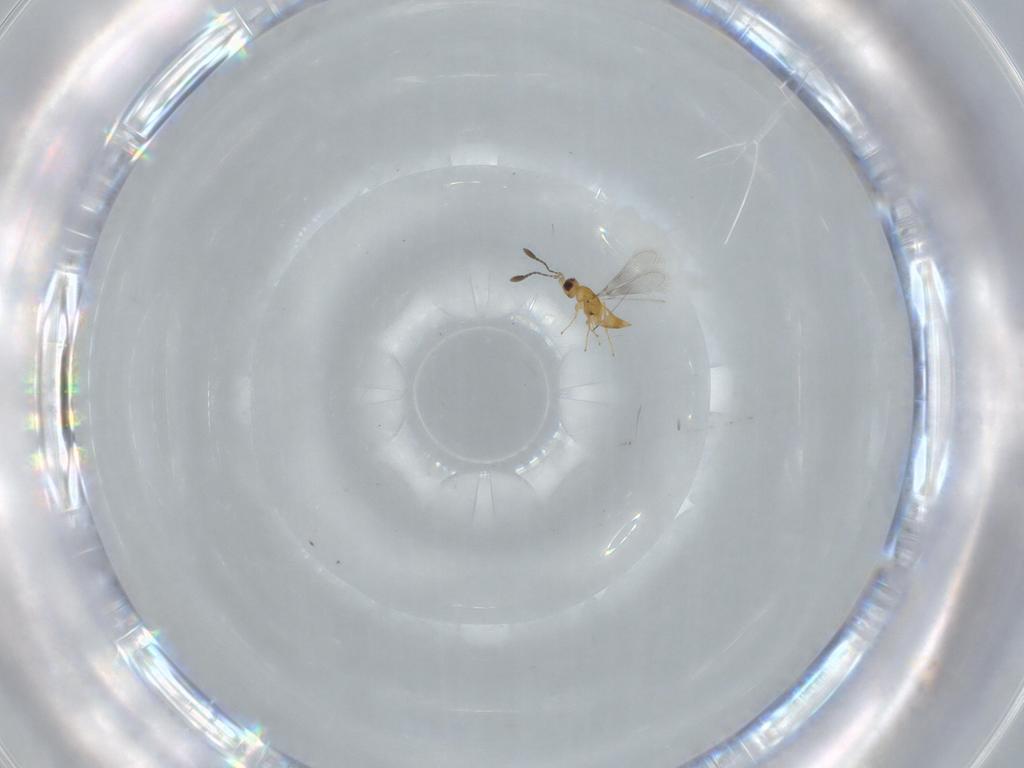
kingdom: Animalia
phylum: Arthropoda
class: Insecta
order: Hymenoptera
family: Mymaridae
